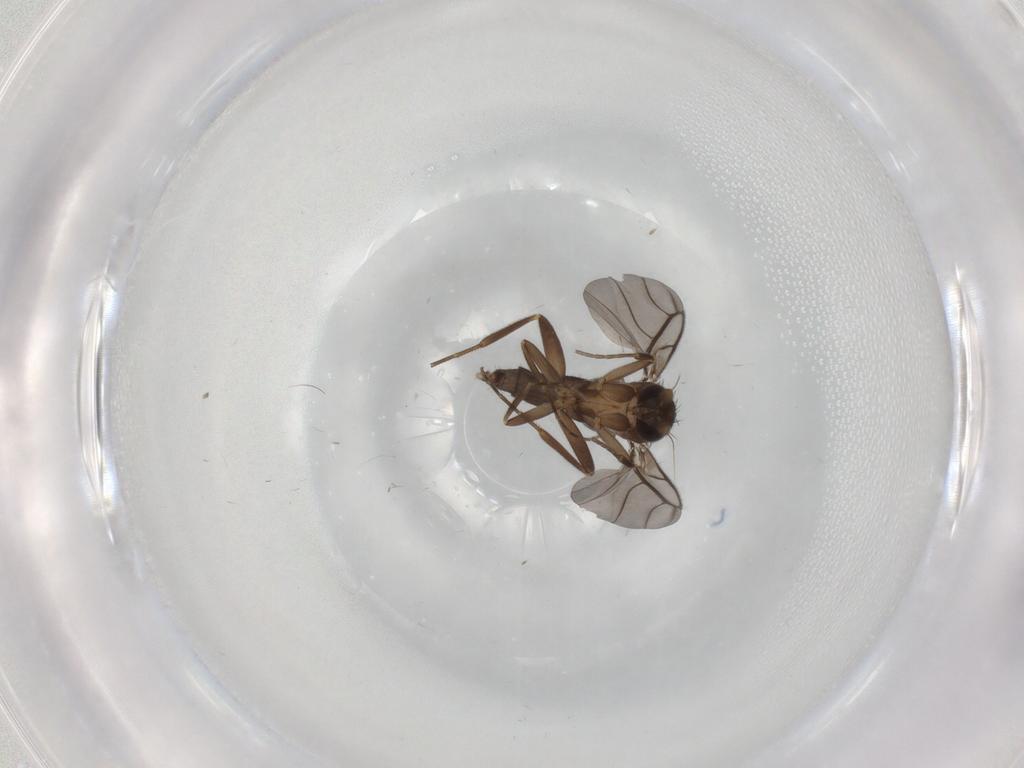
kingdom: Animalia
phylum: Arthropoda
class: Insecta
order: Diptera
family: Phoridae
